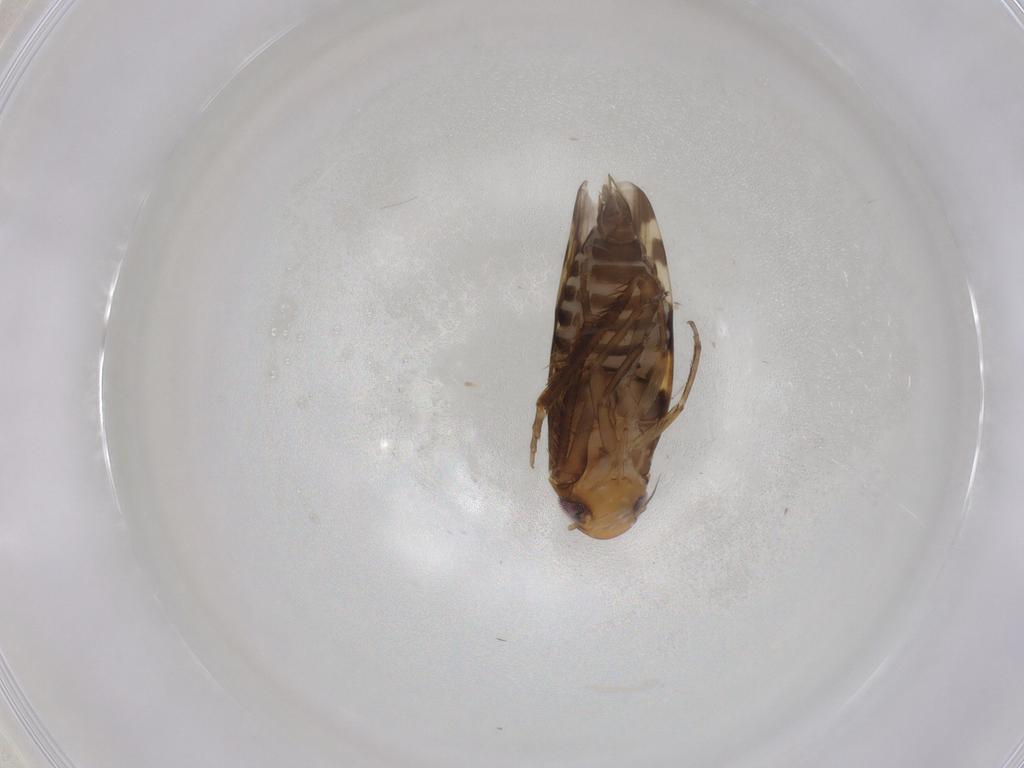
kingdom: Animalia
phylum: Arthropoda
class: Insecta
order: Hemiptera
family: Cicadellidae
